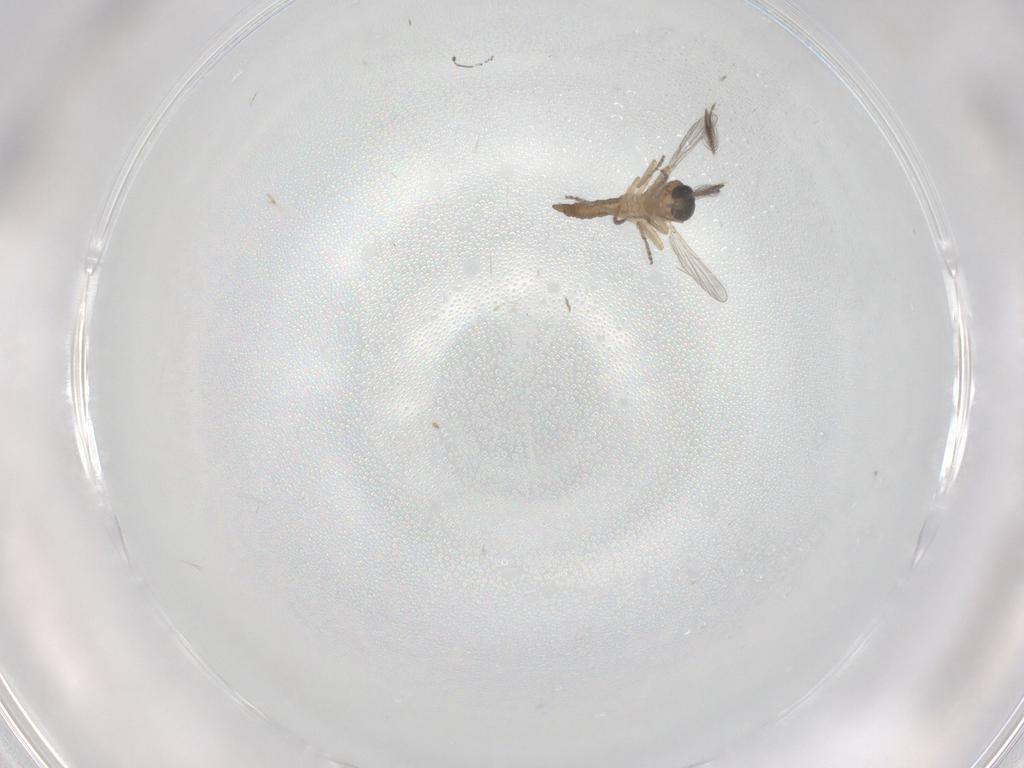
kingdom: Animalia
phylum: Arthropoda
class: Insecta
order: Diptera
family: Ceratopogonidae
